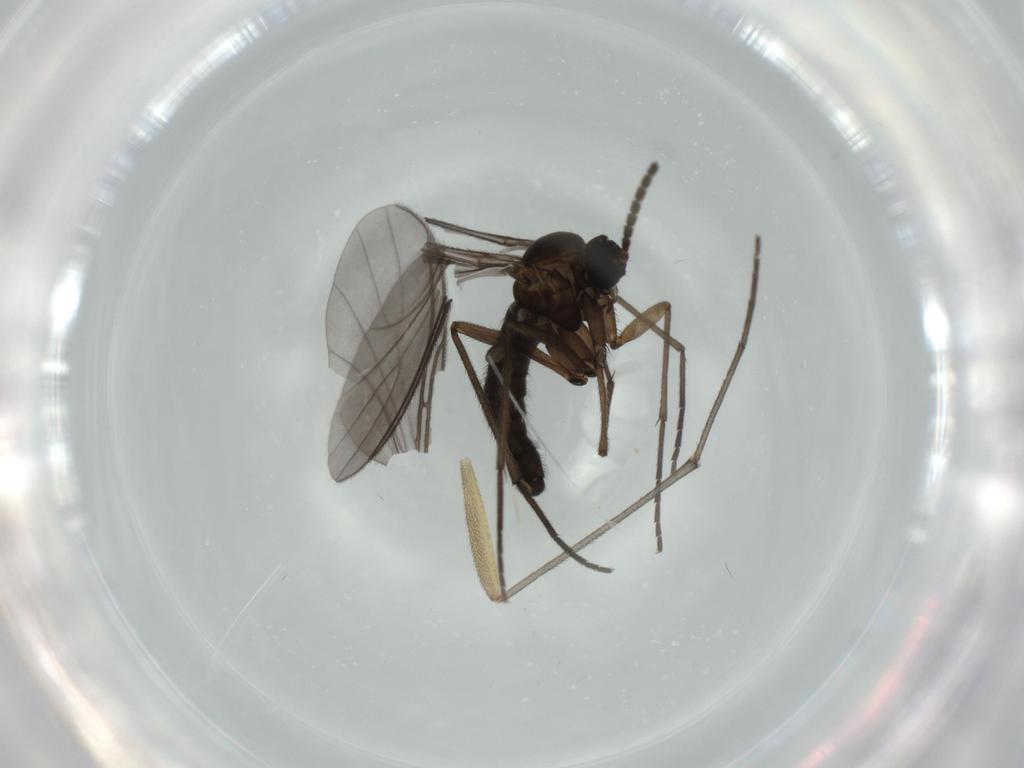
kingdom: Animalia
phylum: Arthropoda
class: Insecta
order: Diptera
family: Sciaridae
